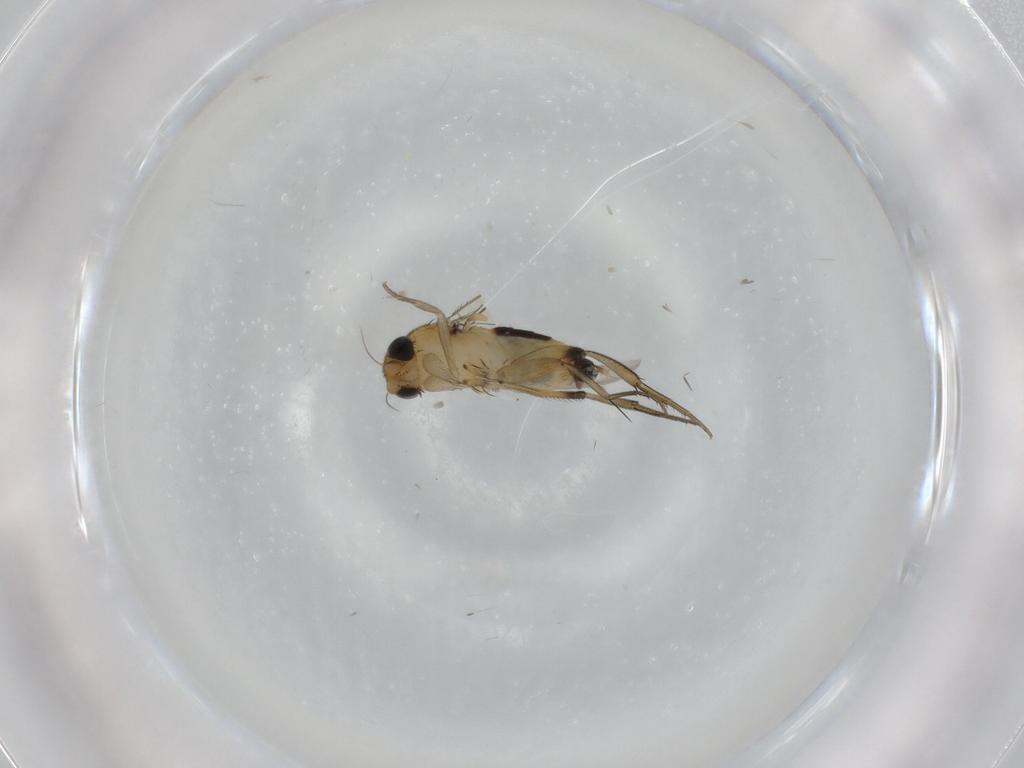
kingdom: Animalia
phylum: Arthropoda
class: Insecta
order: Diptera
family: Phoridae
